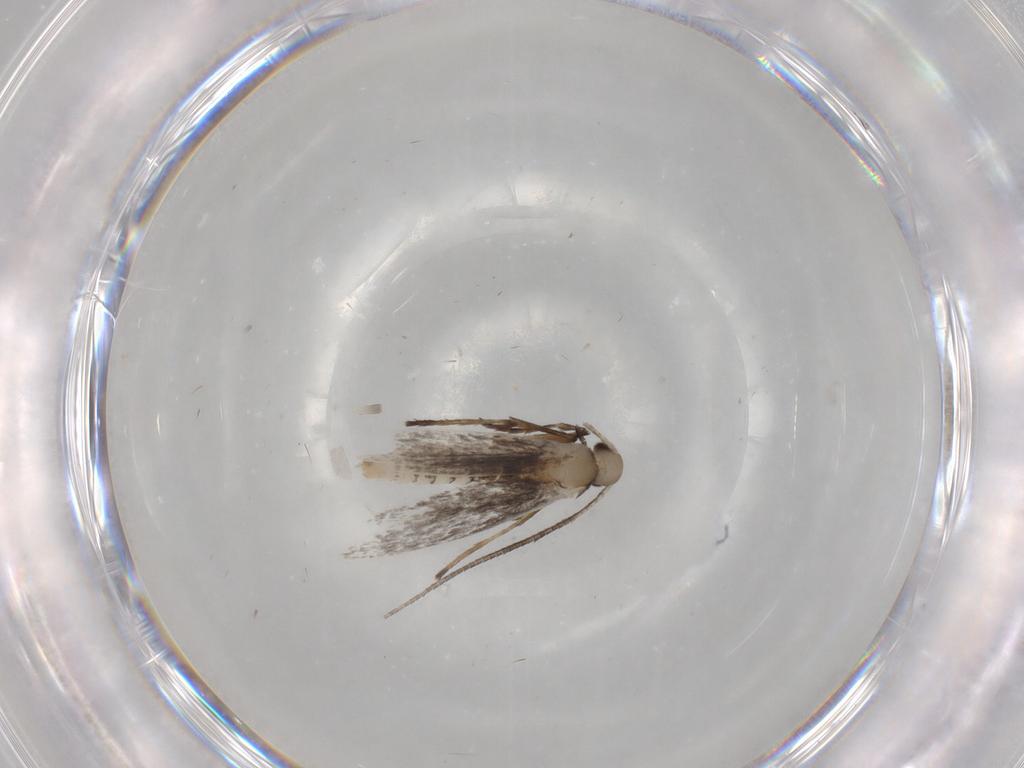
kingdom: Animalia
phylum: Arthropoda
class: Insecta
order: Lepidoptera
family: Gracillariidae
